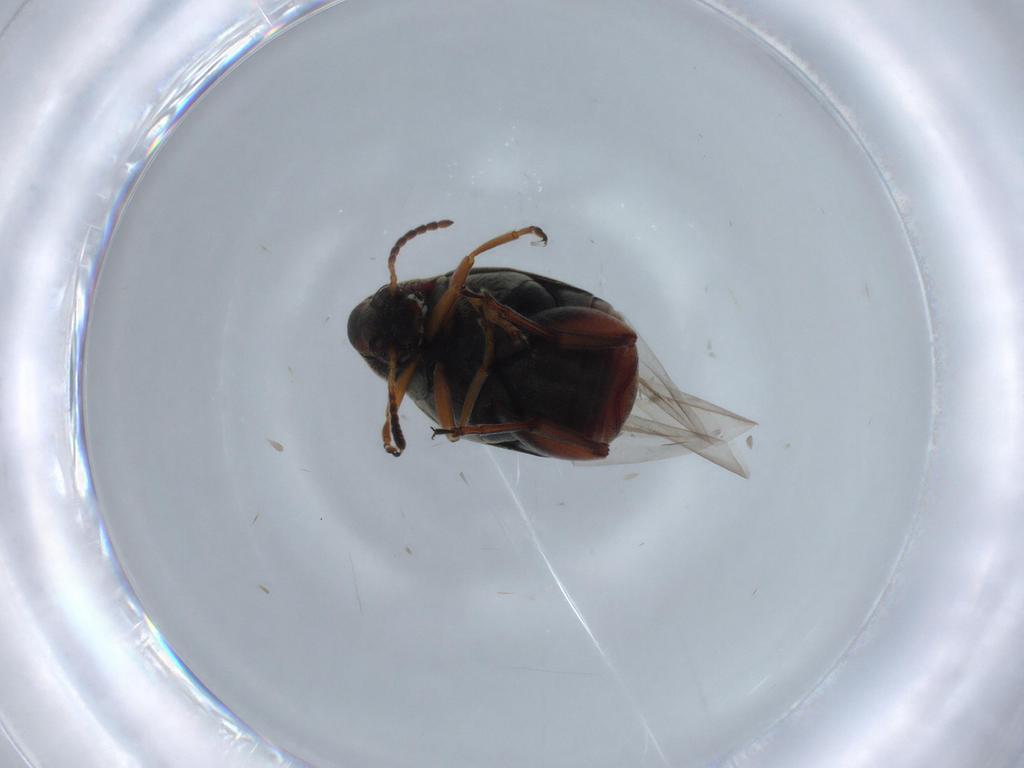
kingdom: Animalia
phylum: Arthropoda
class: Insecta
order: Coleoptera
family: Chrysomelidae
